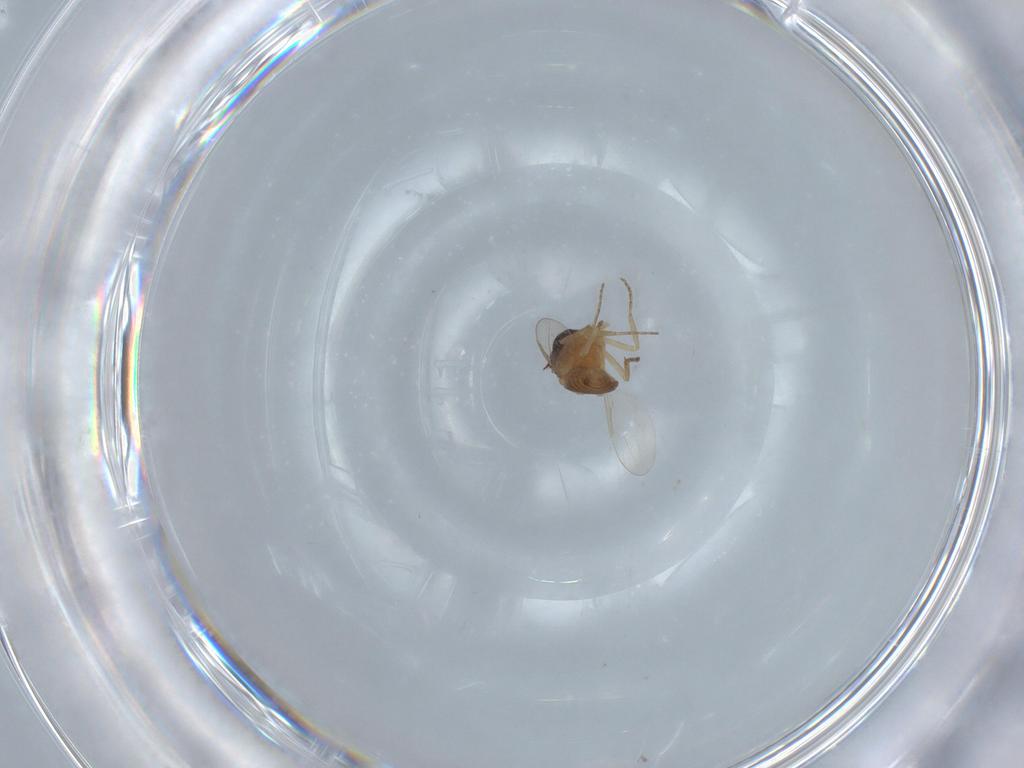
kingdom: Animalia
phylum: Arthropoda
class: Insecta
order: Diptera
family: Ceratopogonidae
